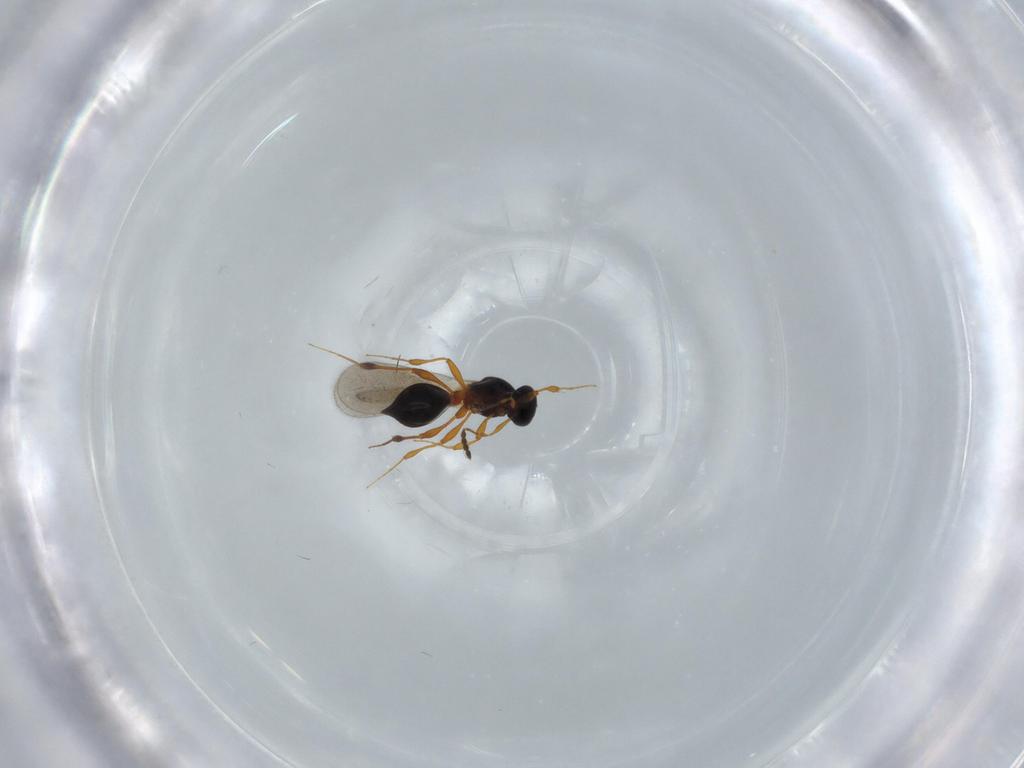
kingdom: Animalia
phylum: Arthropoda
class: Insecta
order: Hymenoptera
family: Platygastridae
